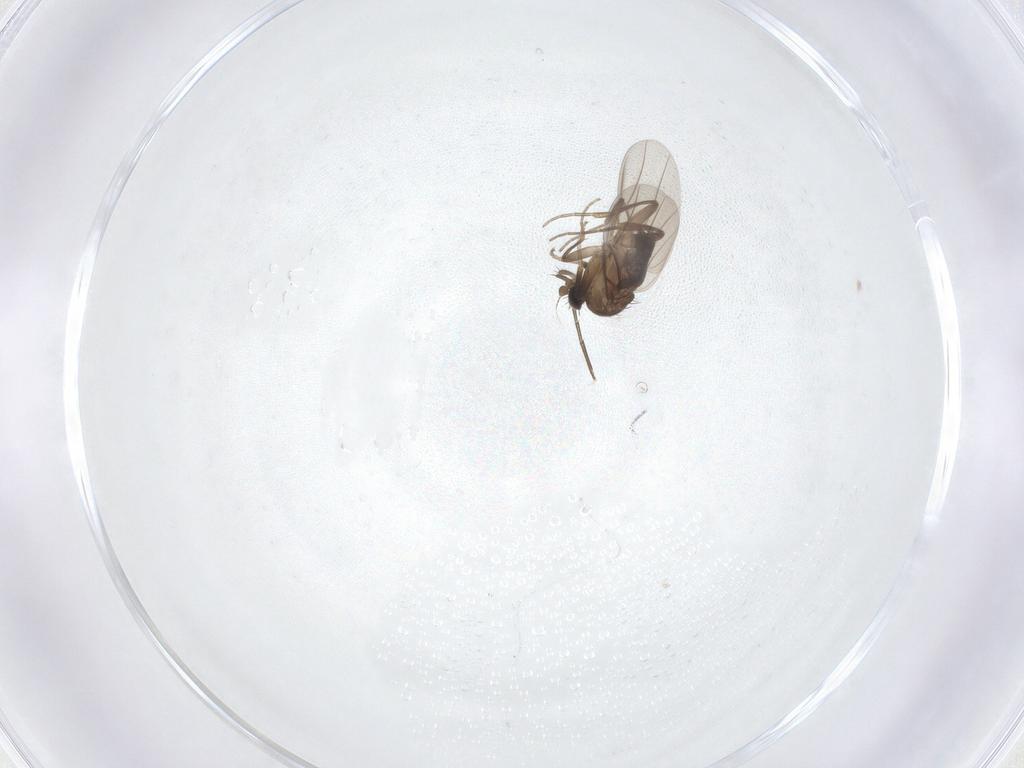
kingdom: Animalia
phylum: Arthropoda
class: Insecta
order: Diptera
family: Phoridae
